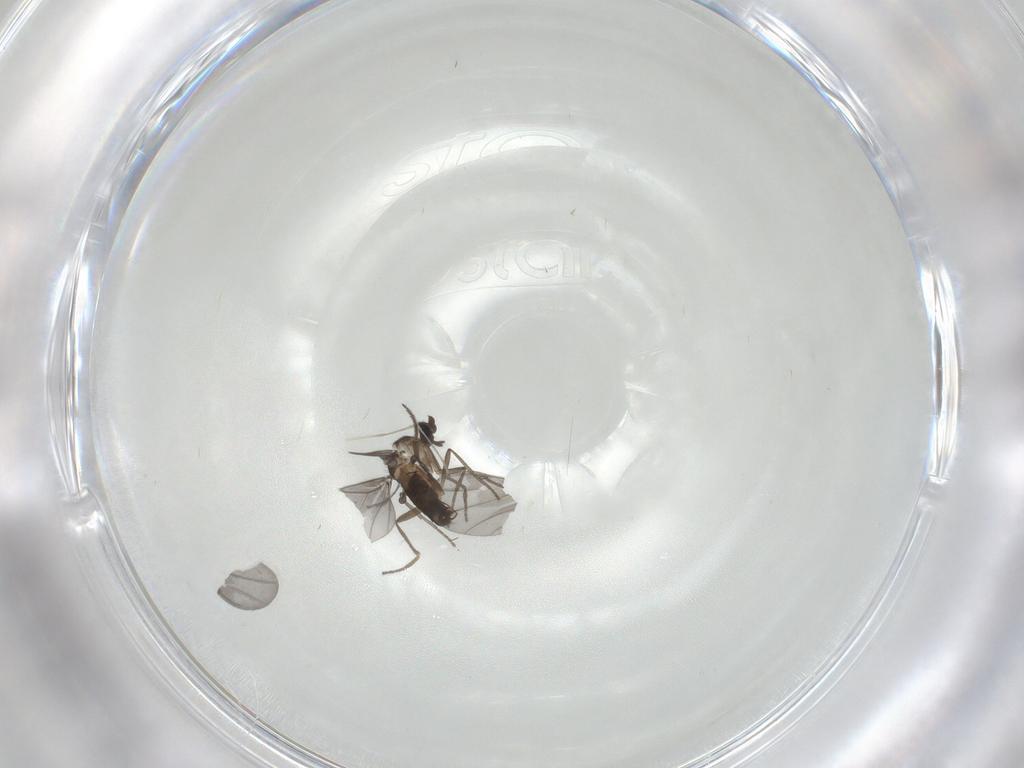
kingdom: Animalia
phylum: Arthropoda
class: Insecta
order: Diptera
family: Phoridae
